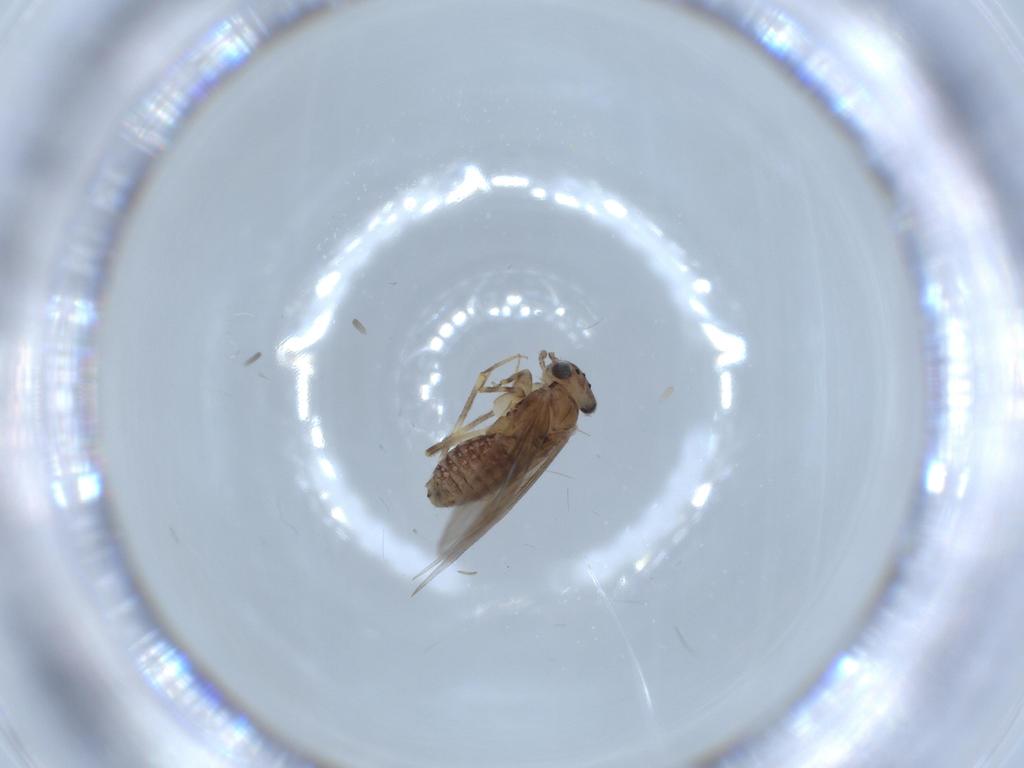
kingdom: Animalia
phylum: Arthropoda
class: Insecta
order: Psocodea
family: Lepidopsocidae
